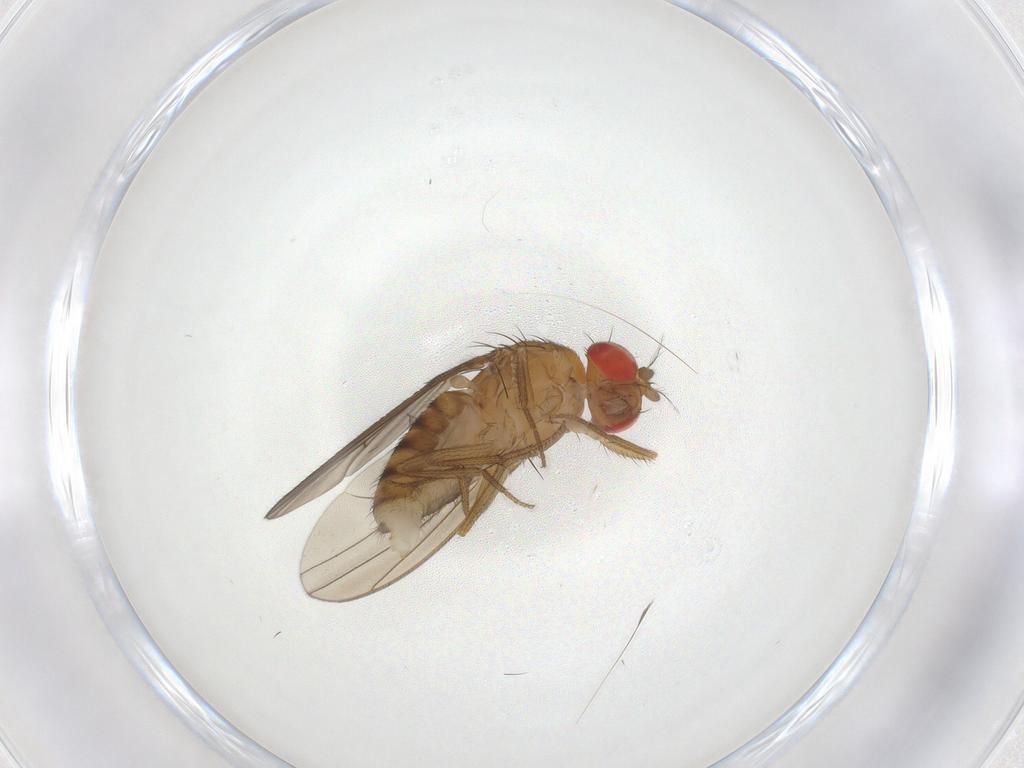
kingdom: Animalia
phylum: Arthropoda
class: Insecta
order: Diptera
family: Drosophilidae
